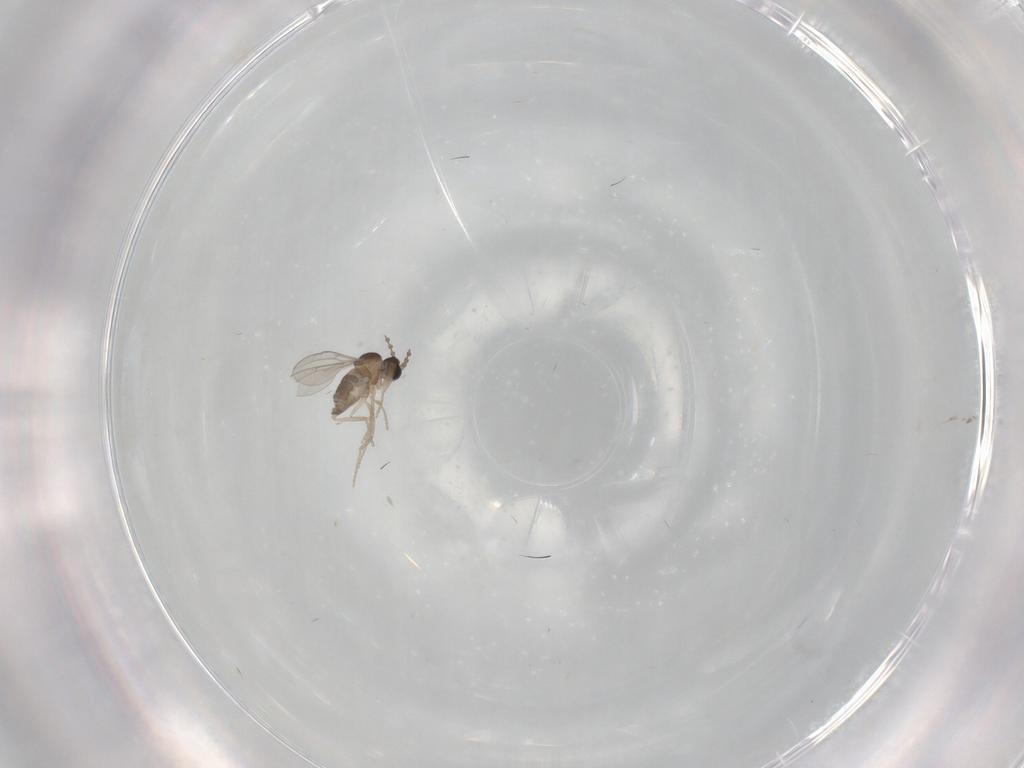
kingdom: Animalia
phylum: Arthropoda
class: Insecta
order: Diptera
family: Cecidomyiidae
